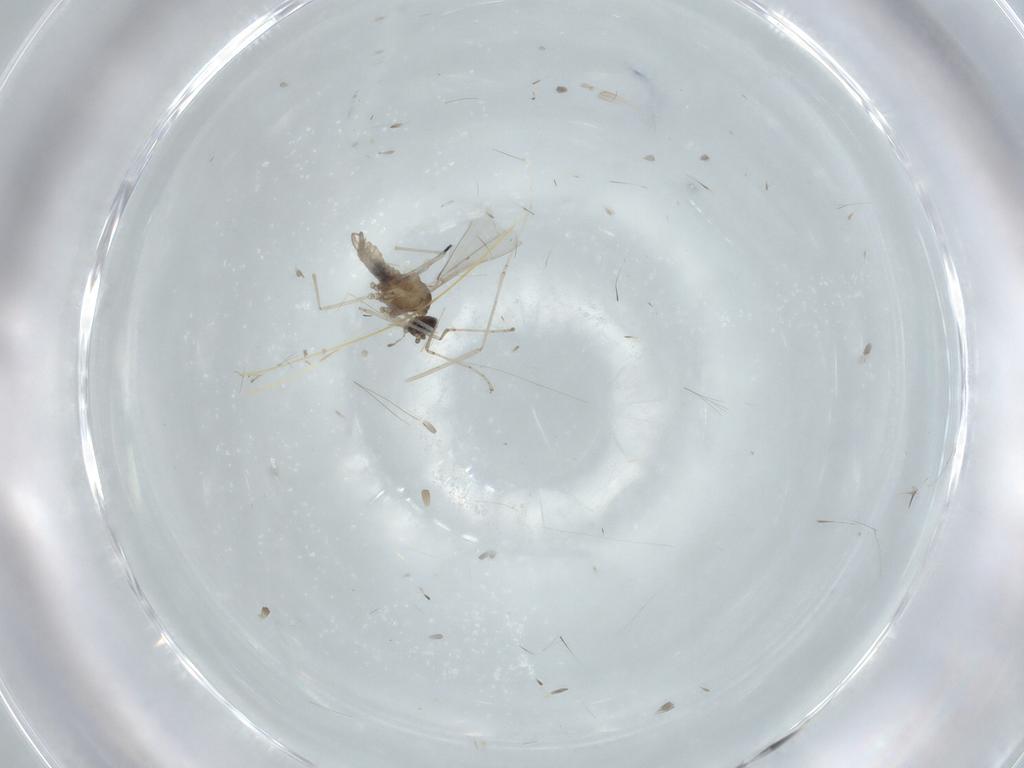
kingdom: Animalia
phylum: Arthropoda
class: Insecta
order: Diptera
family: Cecidomyiidae
